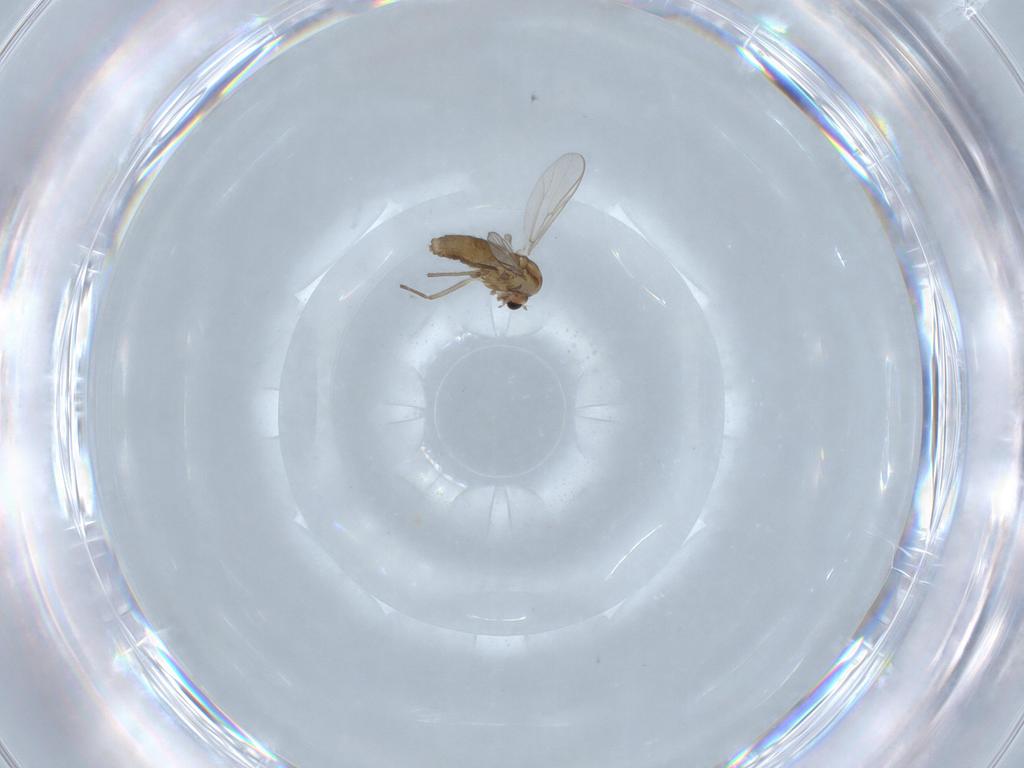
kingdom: Animalia
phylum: Arthropoda
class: Insecta
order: Diptera
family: Chironomidae
